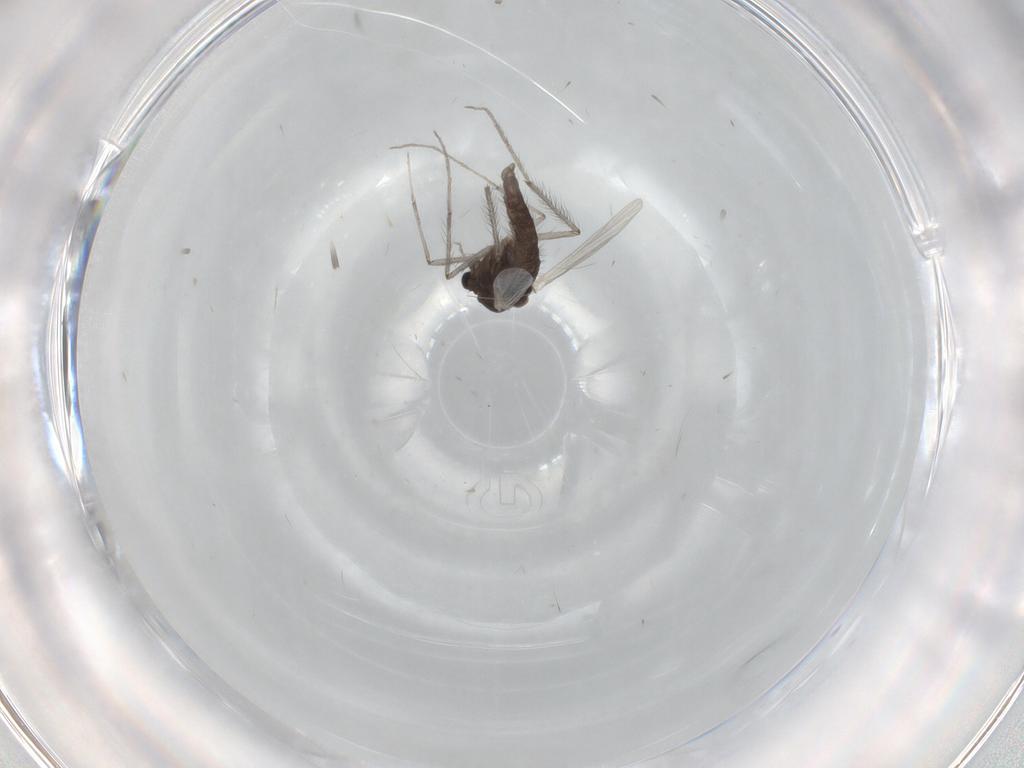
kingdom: Animalia
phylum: Arthropoda
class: Insecta
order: Diptera
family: Chironomidae
